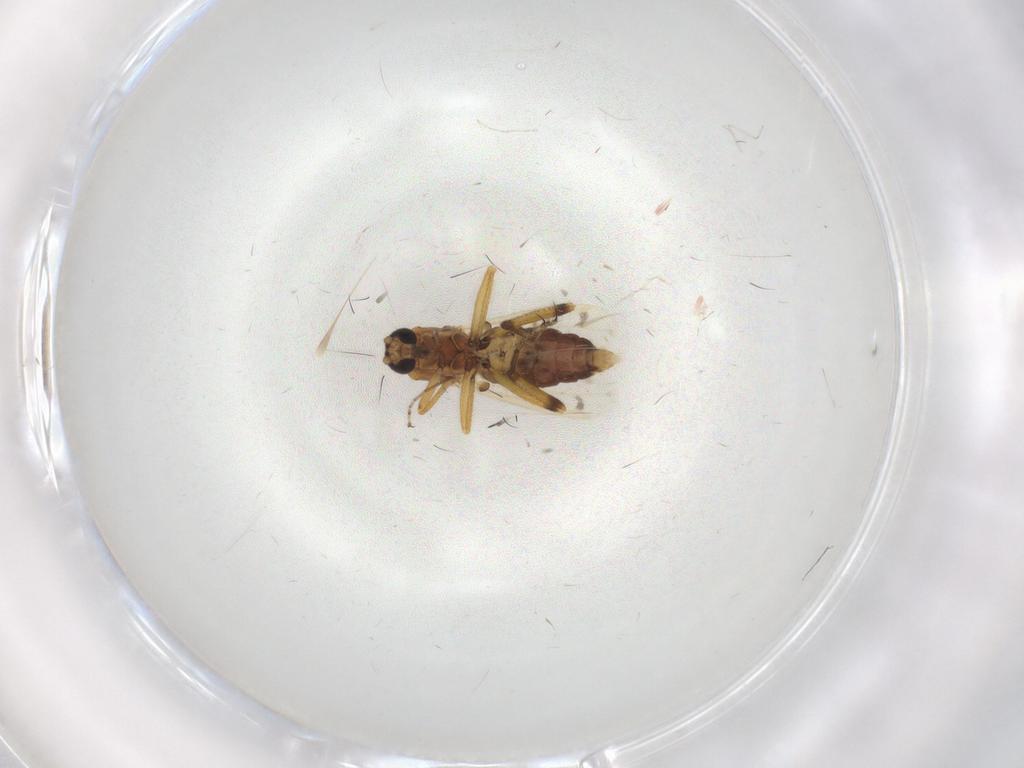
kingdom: Animalia
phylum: Arthropoda
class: Insecta
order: Diptera
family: Ceratopogonidae
